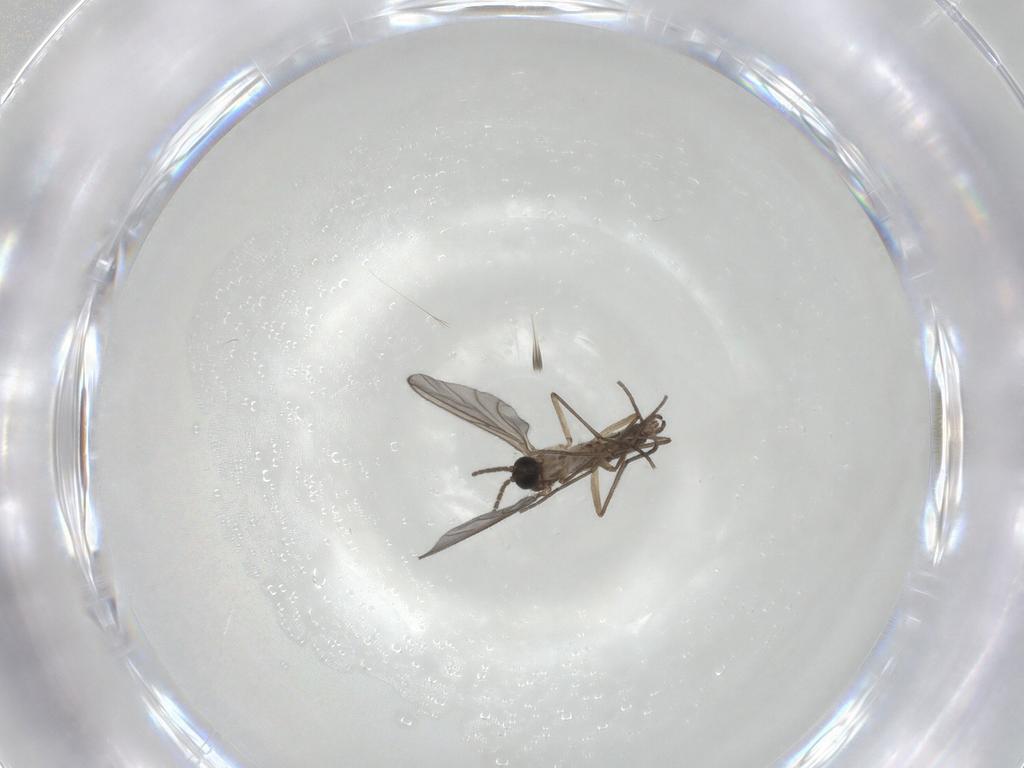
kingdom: Animalia
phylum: Arthropoda
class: Insecta
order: Diptera
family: Sciaridae
